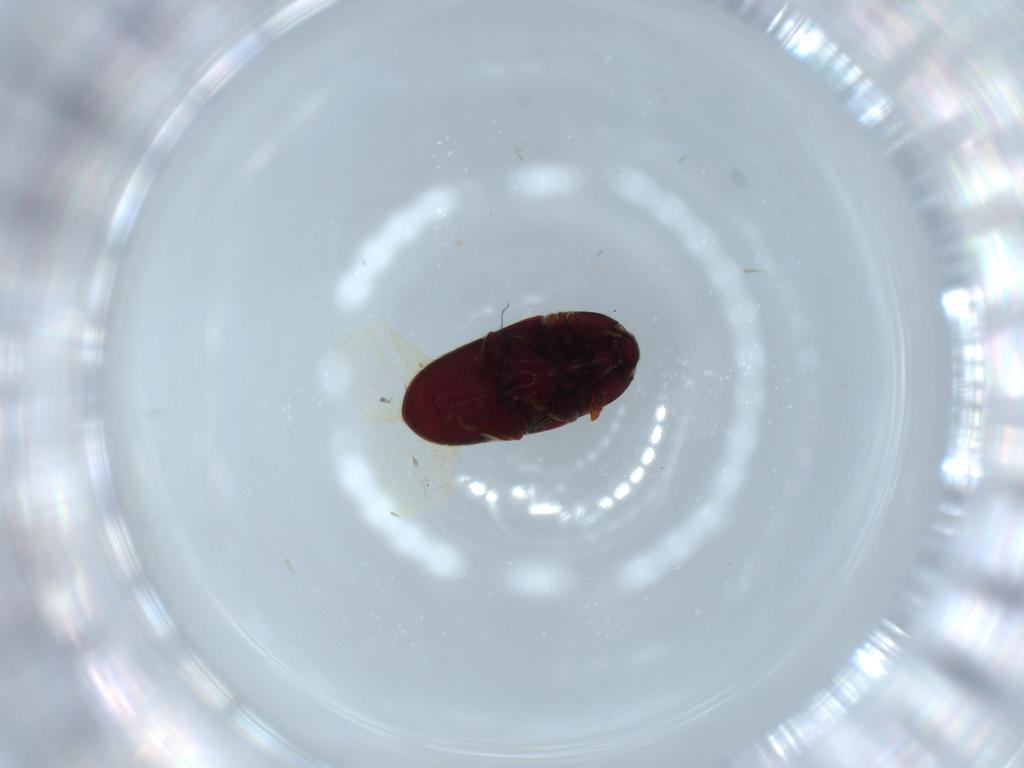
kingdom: Animalia
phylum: Arthropoda
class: Insecta
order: Coleoptera
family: Throscidae
